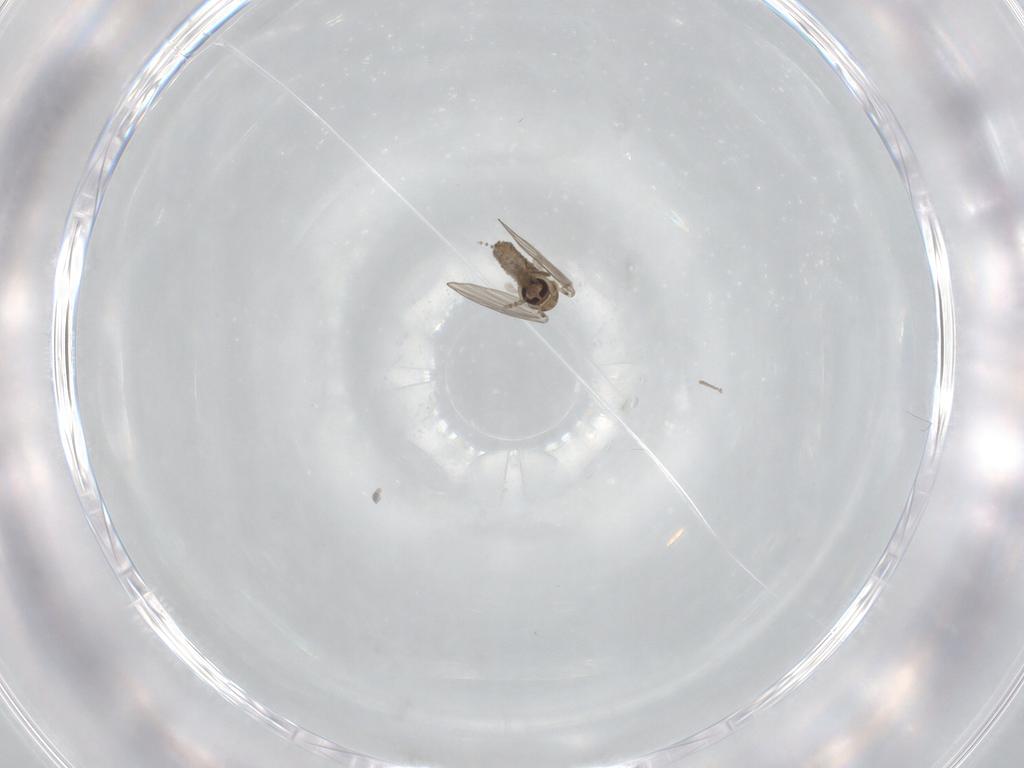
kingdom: Animalia
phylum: Arthropoda
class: Insecta
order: Diptera
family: Psychodidae
